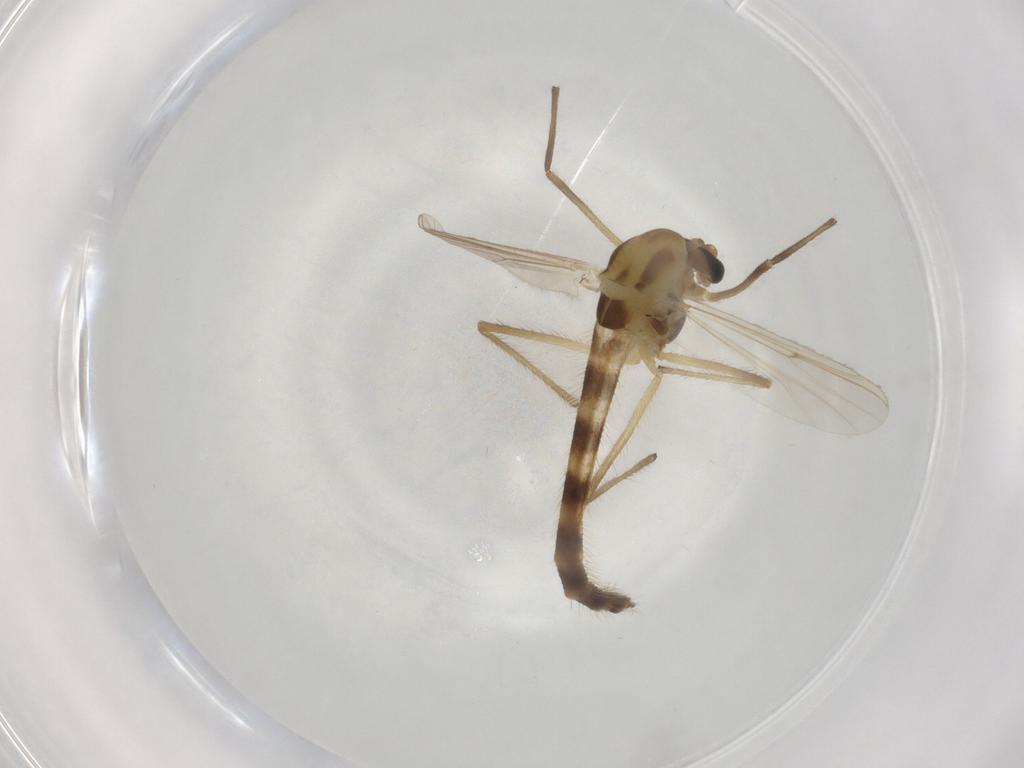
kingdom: Animalia
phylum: Arthropoda
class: Insecta
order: Diptera
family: Chironomidae
